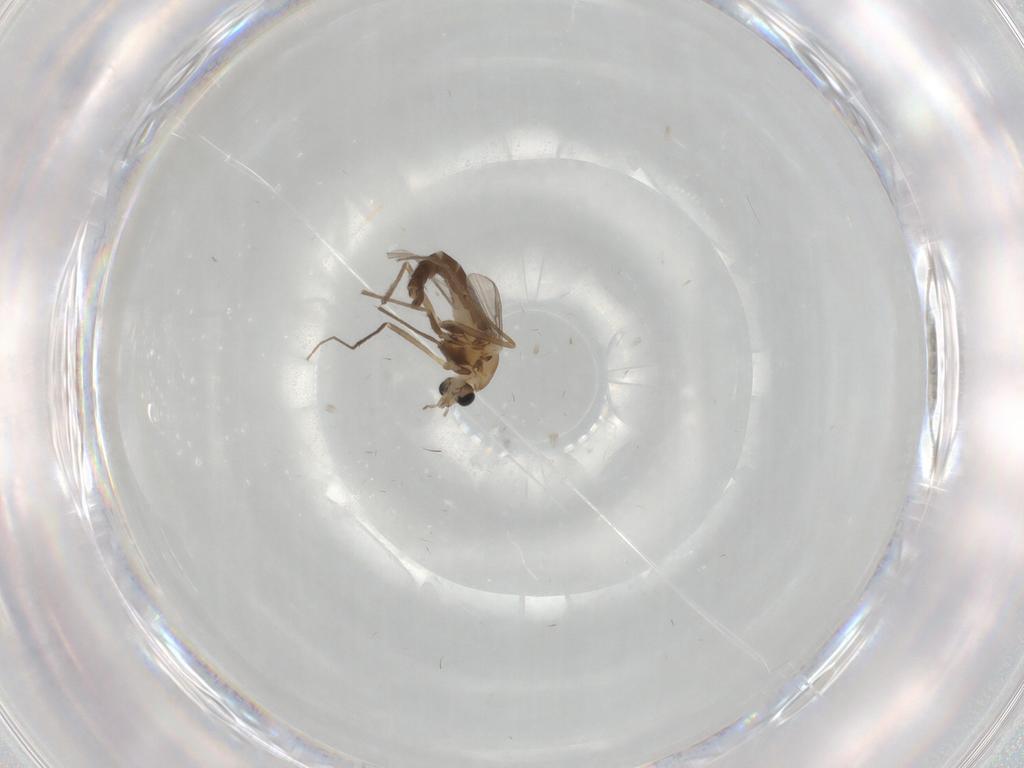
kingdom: Animalia
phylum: Arthropoda
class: Insecta
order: Diptera
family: Chironomidae
